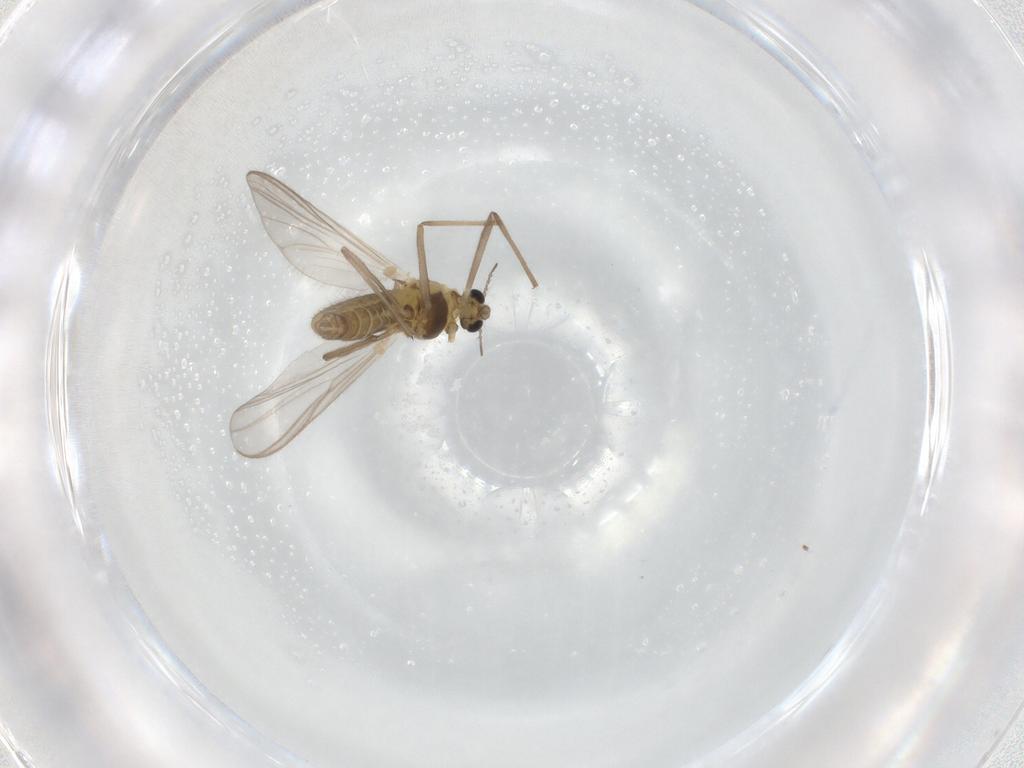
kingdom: Animalia
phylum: Arthropoda
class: Insecta
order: Diptera
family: Chironomidae
